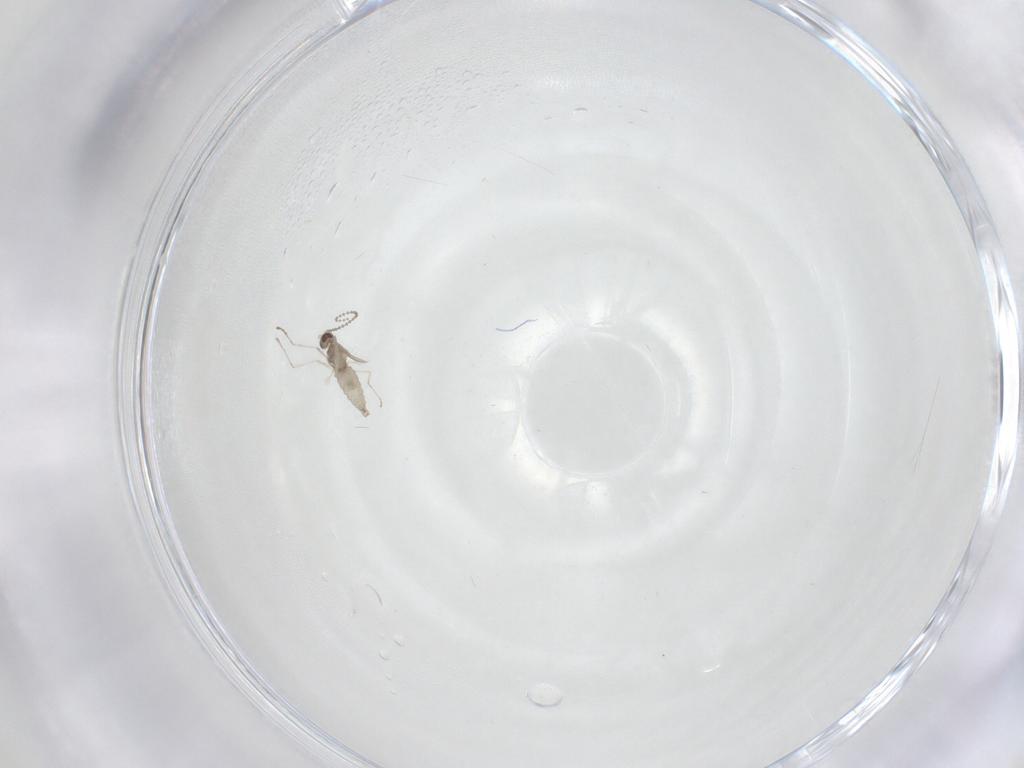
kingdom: Animalia
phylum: Arthropoda
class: Insecta
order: Diptera
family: Cecidomyiidae
